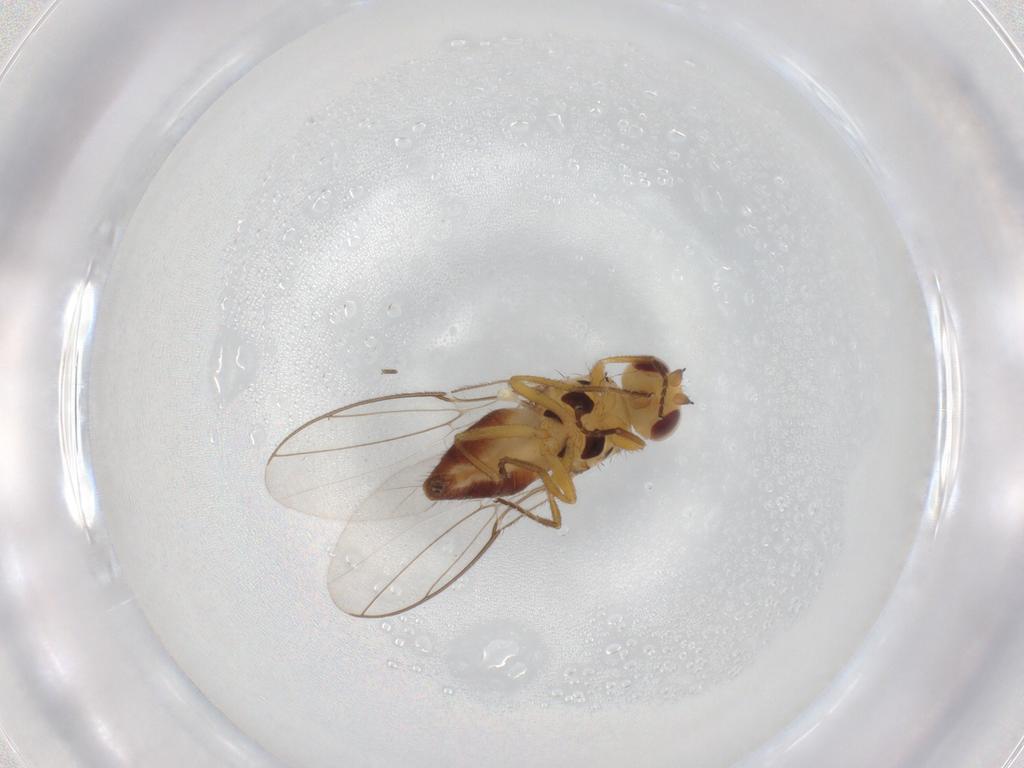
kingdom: Animalia
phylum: Arthropoda
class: Insecta
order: Diptera
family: Chloropidae
